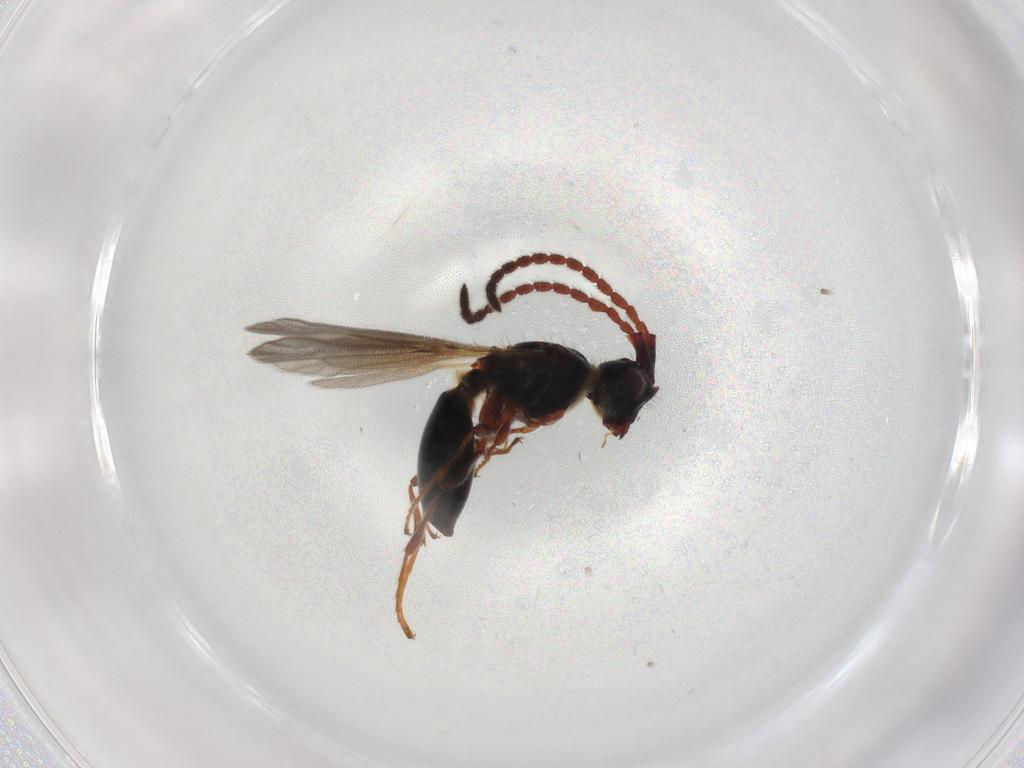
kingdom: Animalia
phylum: Arthropoda
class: Insecta
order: Hymenoptera
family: Diapriidae
